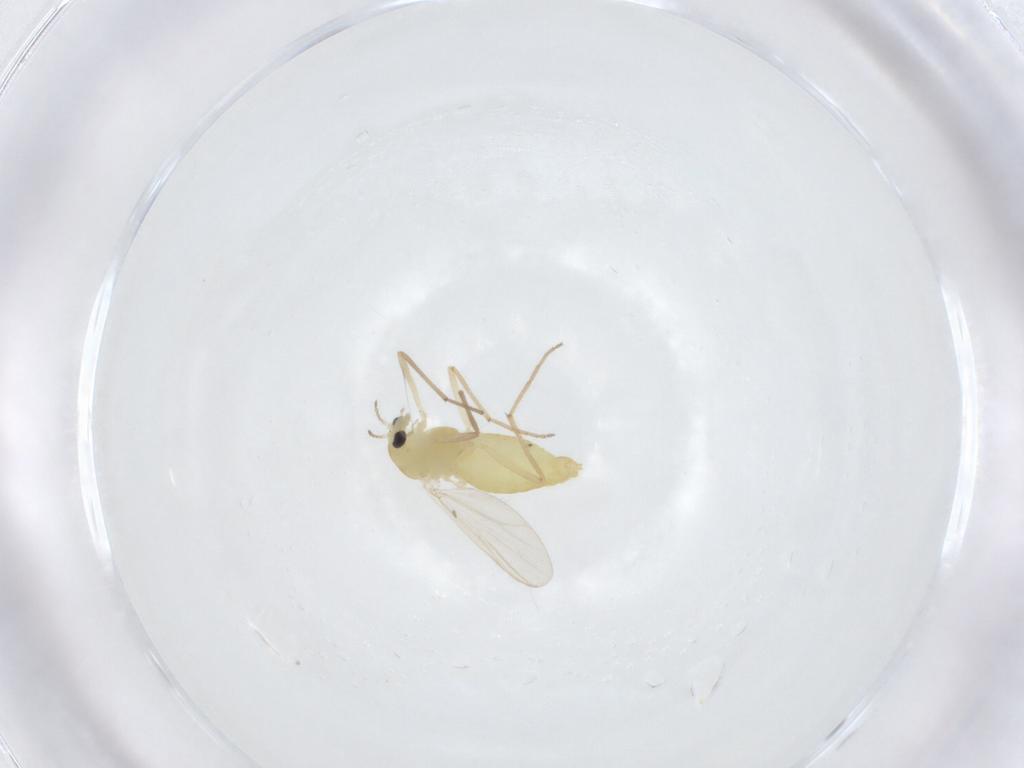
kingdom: Animalia
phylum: Arthropoda
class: Insecta
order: Diptera
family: Chironomidae
